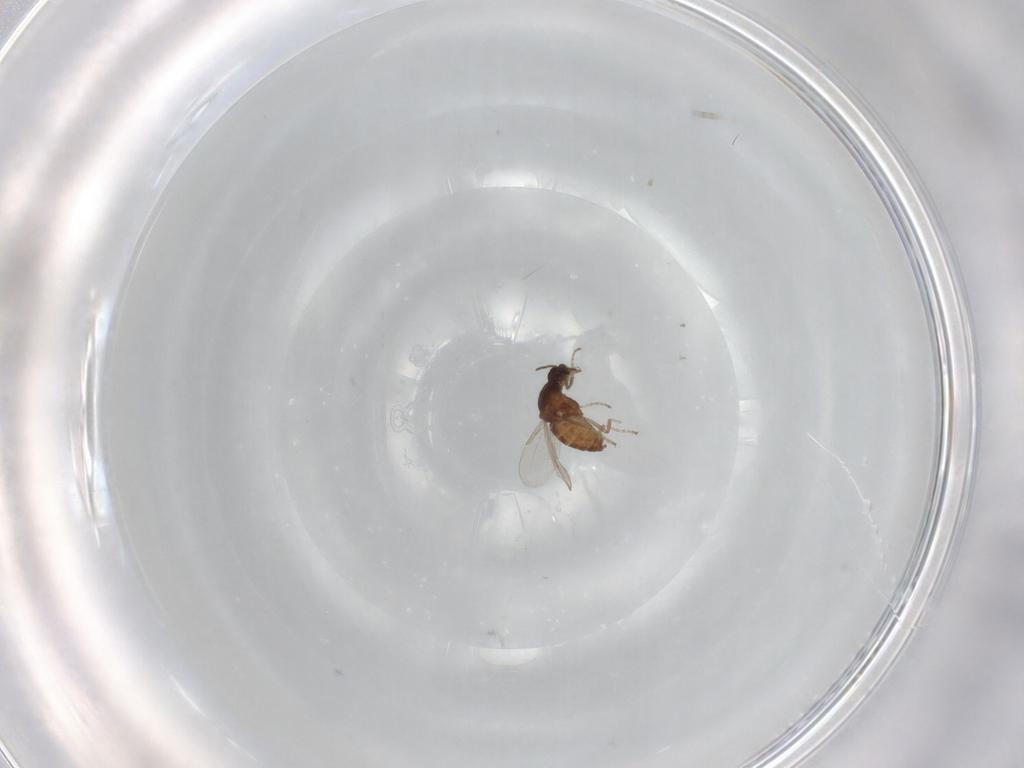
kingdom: Animalia
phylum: Arthropoda
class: Insecta
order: Diptera
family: Ceratopogonidae
